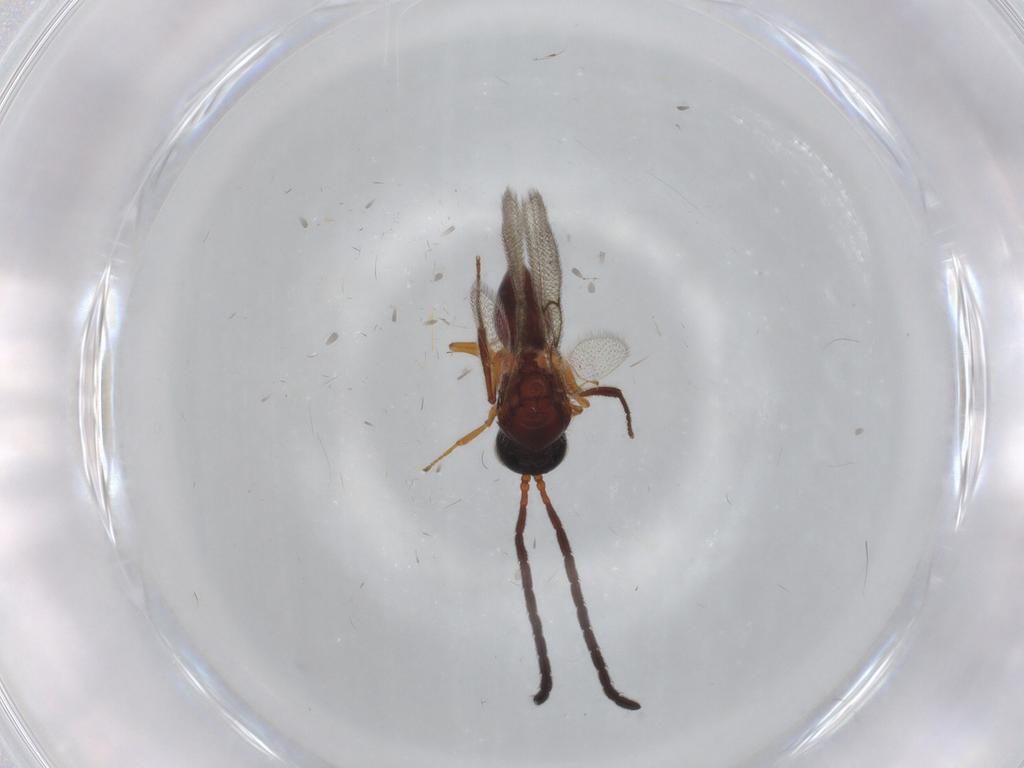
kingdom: Animalia
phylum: Arthropoda
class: Insecta
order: Hymenoptera
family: Figitidae
